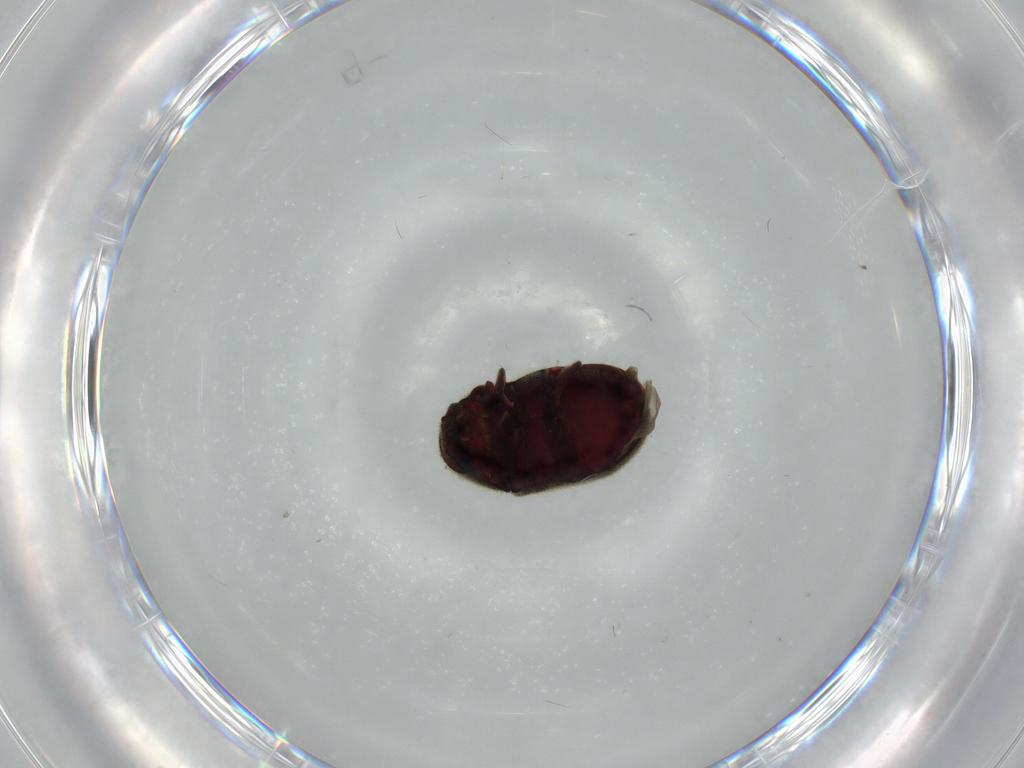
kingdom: Animalia
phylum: Arthropoda
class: Insecta
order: Coleoptera
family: Ptinidae
